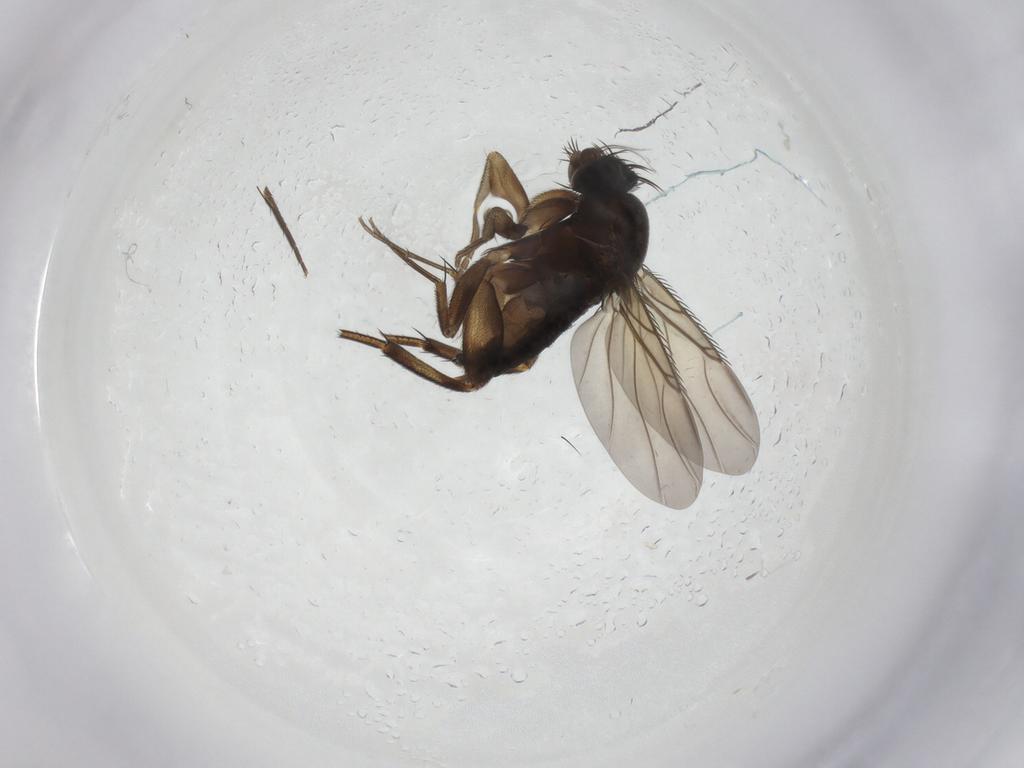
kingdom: Animalia
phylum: Arthropoda
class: Insecta
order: Diptera
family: Phoridae
